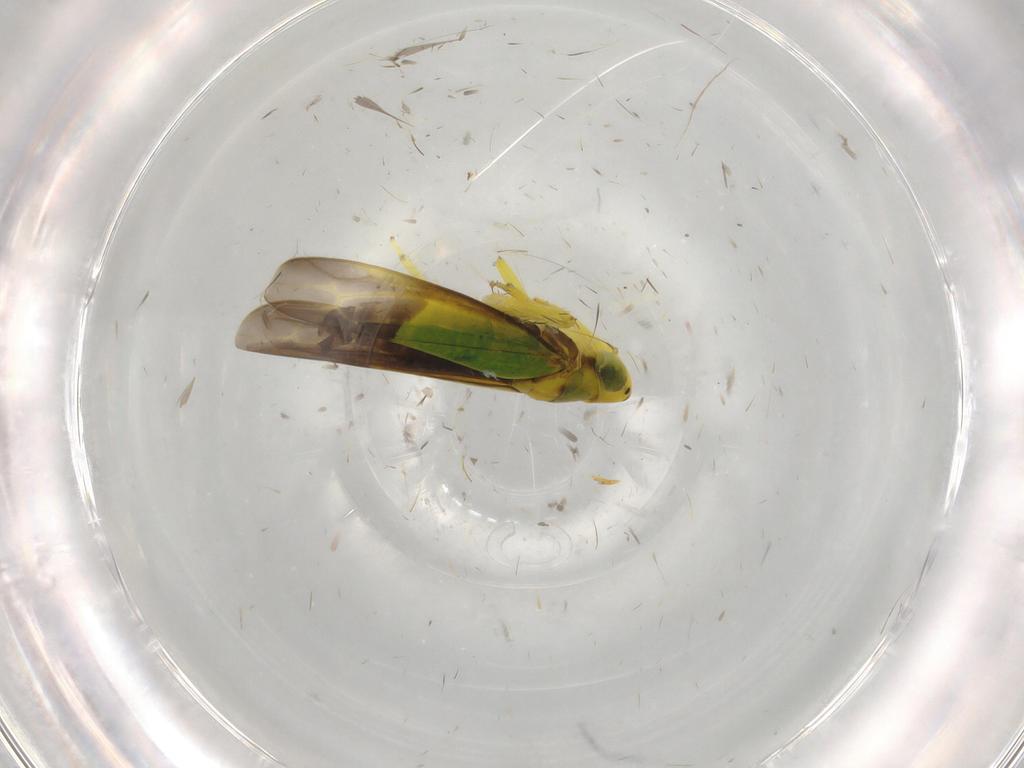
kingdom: Animalia
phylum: Arthropoda
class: Insecta
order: Hemiptera
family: Cicadellidae
